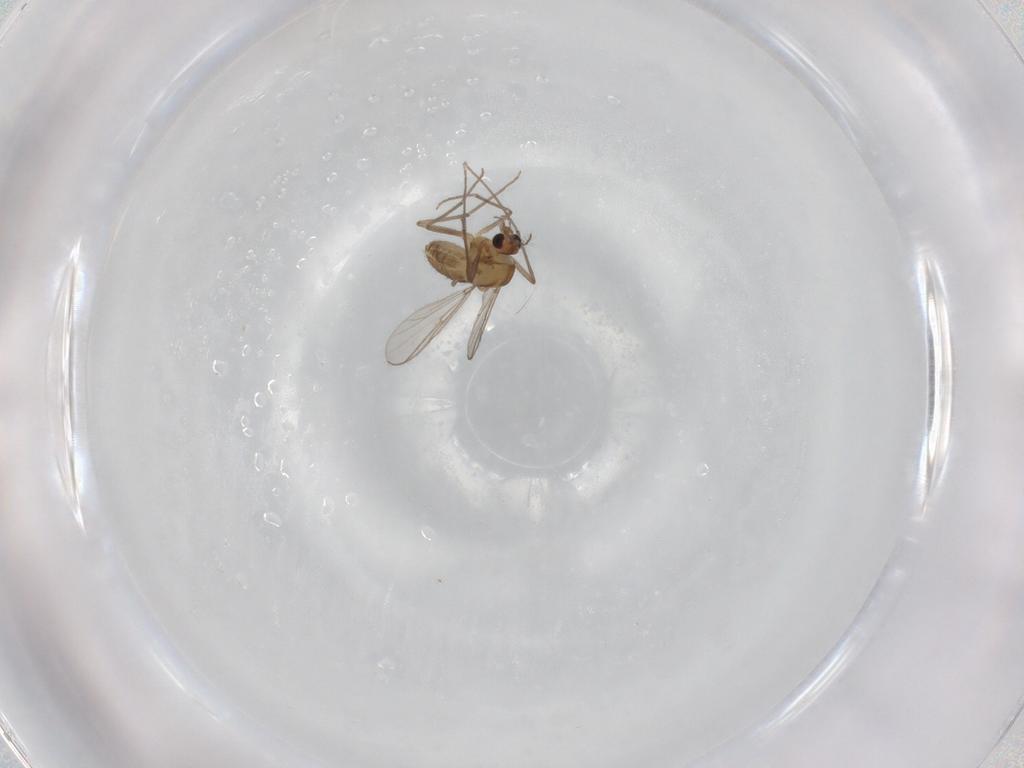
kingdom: Animalia
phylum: Arthropoda
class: Insecta
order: Diptera
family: Chironomidae
